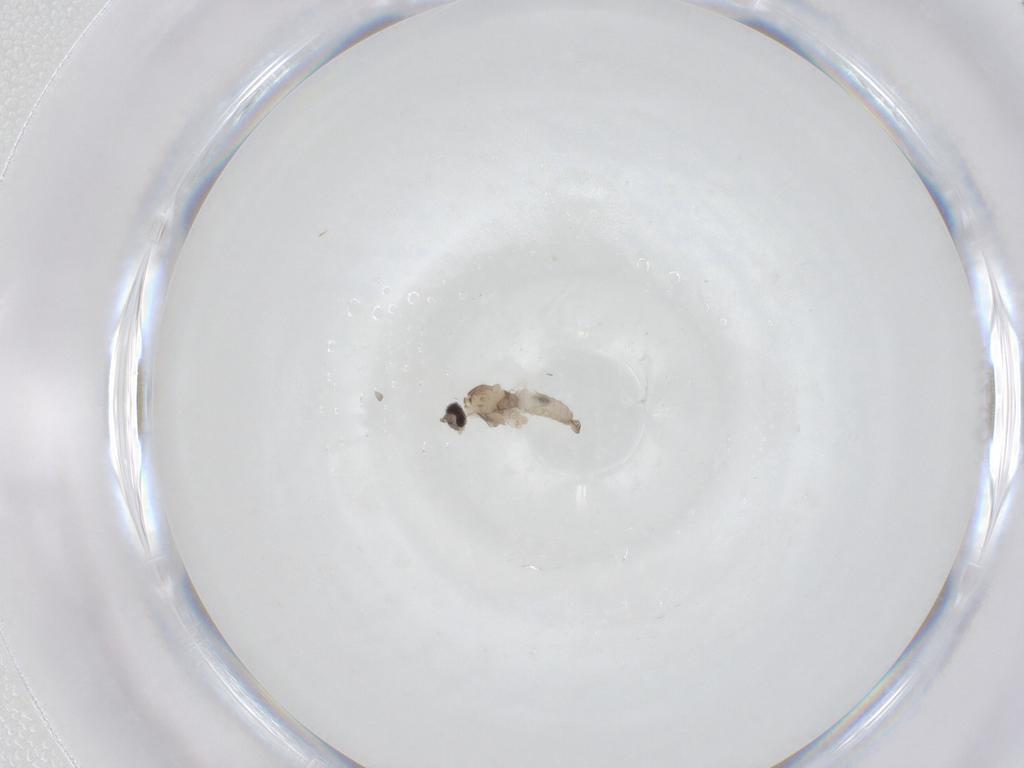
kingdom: Animalia
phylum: Arthropoda
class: Insecta
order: Diptera
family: Cecidomyiidae
